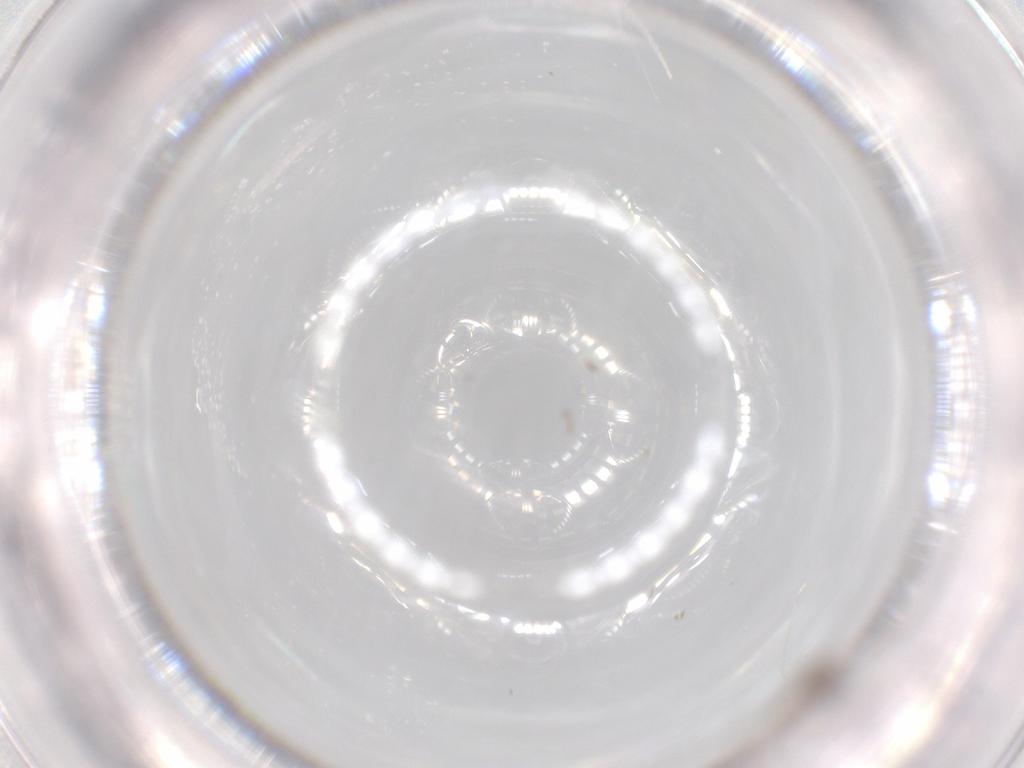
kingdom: Animalia
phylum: Arthropoda
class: Insecta
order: Diptera
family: Sciaridae
